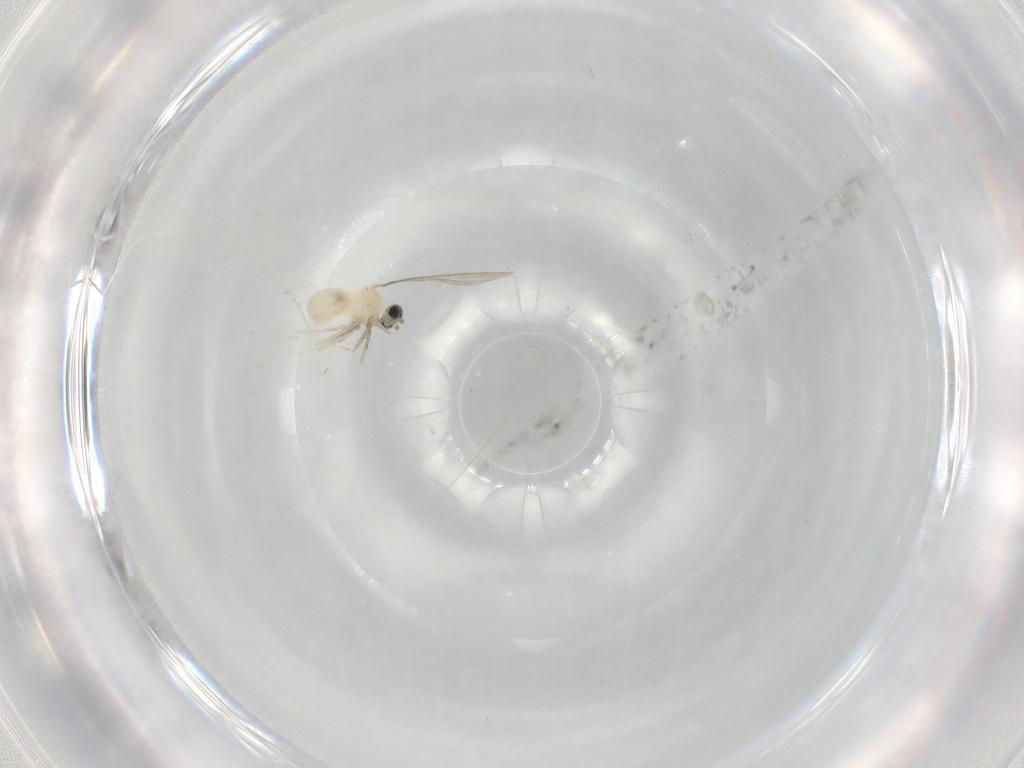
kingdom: Animalia
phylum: Arthropoda
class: Insecta
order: Diptera
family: Cecidomyiidae
